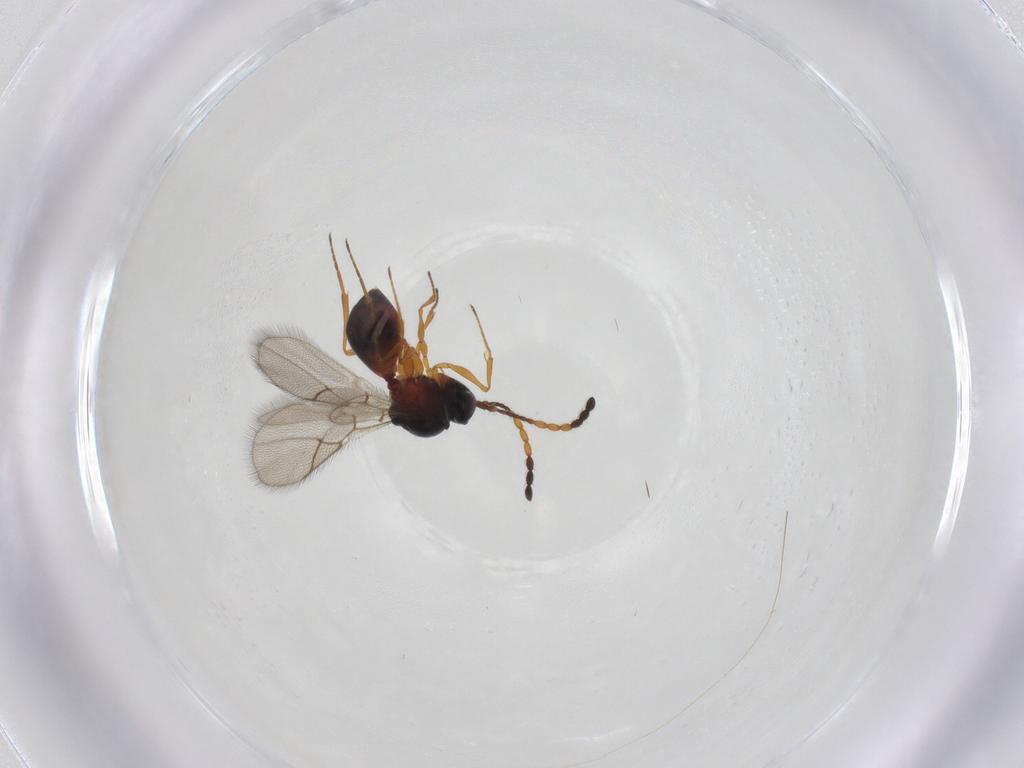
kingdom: Animalia
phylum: Arthropoda
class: Insecta
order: Hymenoptera
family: Figitidae
